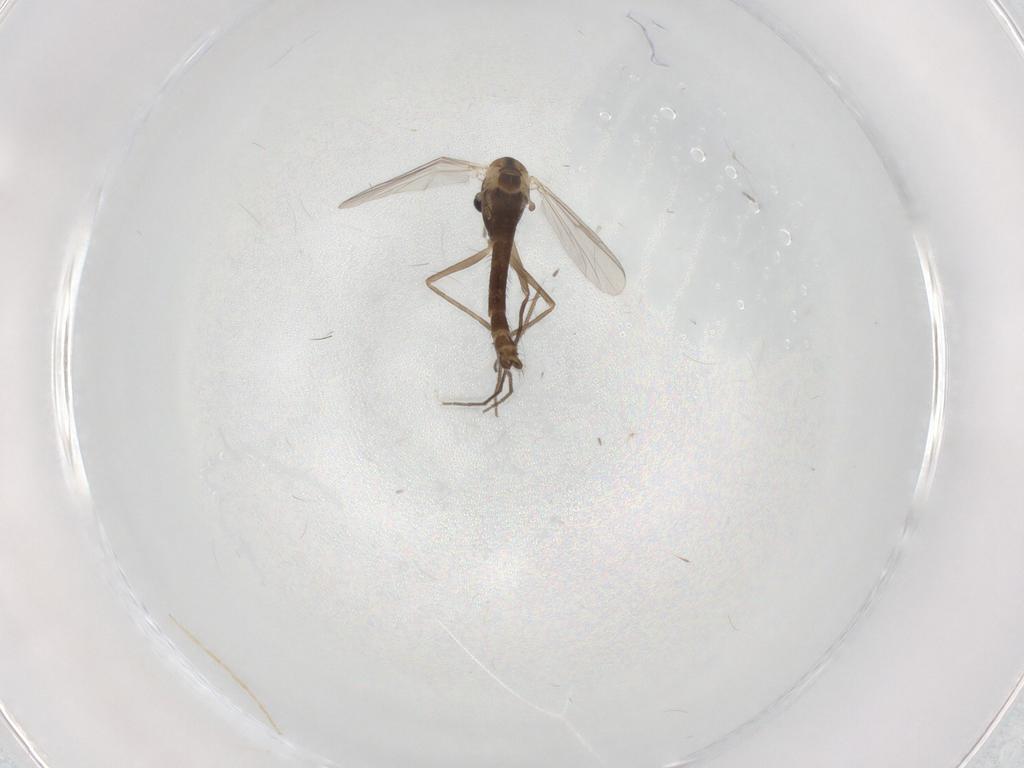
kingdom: Animalia
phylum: Arthropoda
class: Insecta
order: Diptera
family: Chironomidae
